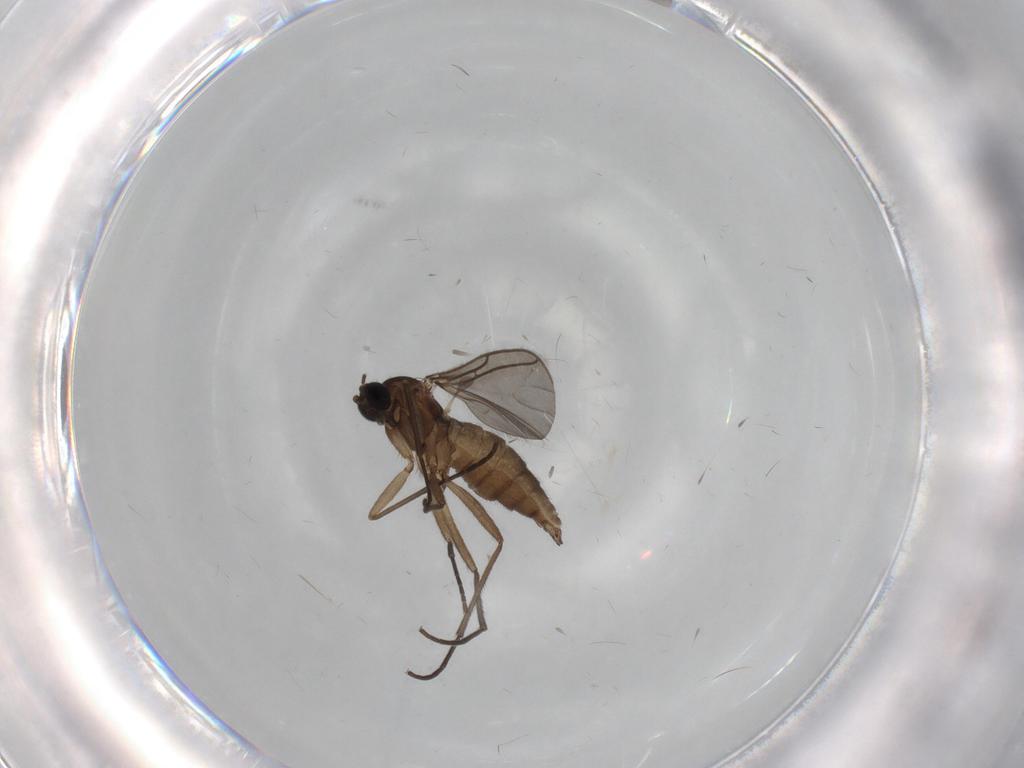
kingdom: Animalia
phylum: Arthropoda
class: Insecta
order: Diptera
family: Sciaridae
